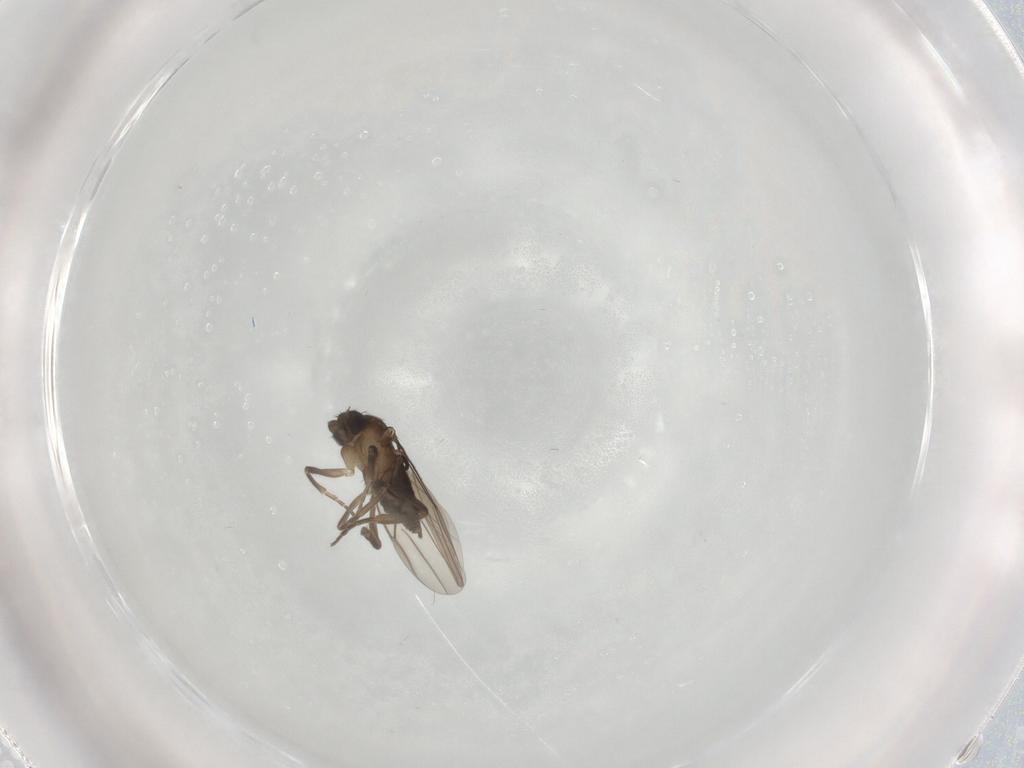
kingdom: Animalia
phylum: Arthropoda
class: Insecta
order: Diptera
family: Phoridae
